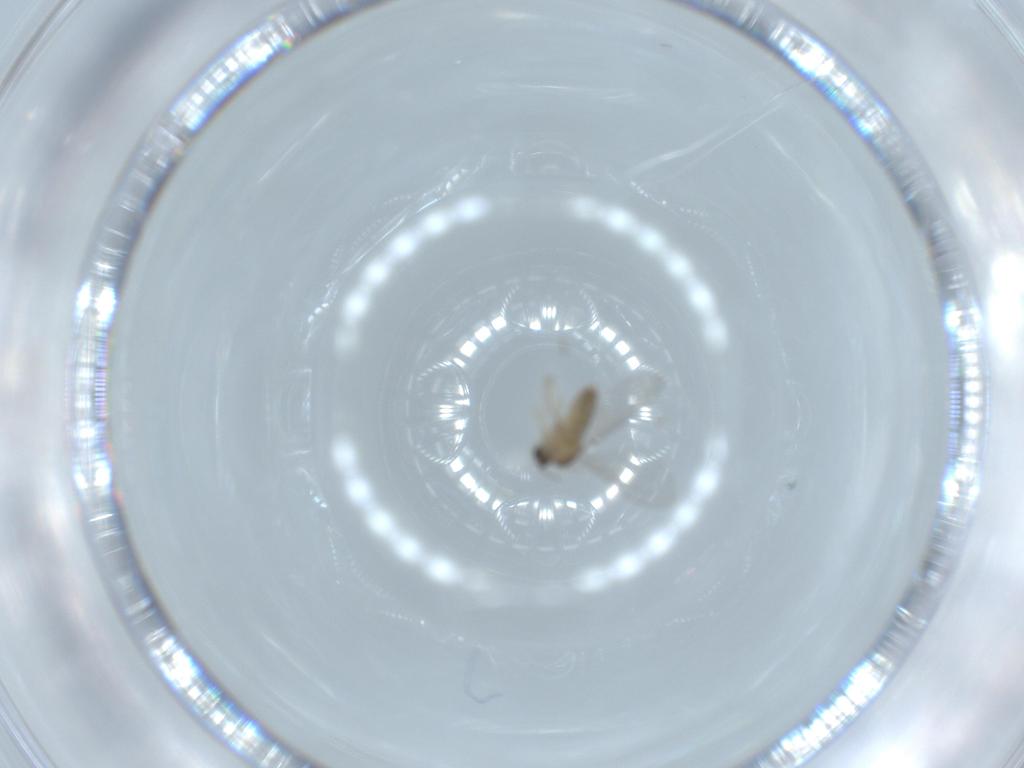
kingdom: Animalia
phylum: Arthropoda
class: Insecta
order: Diptera
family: Cecidomyiidae
